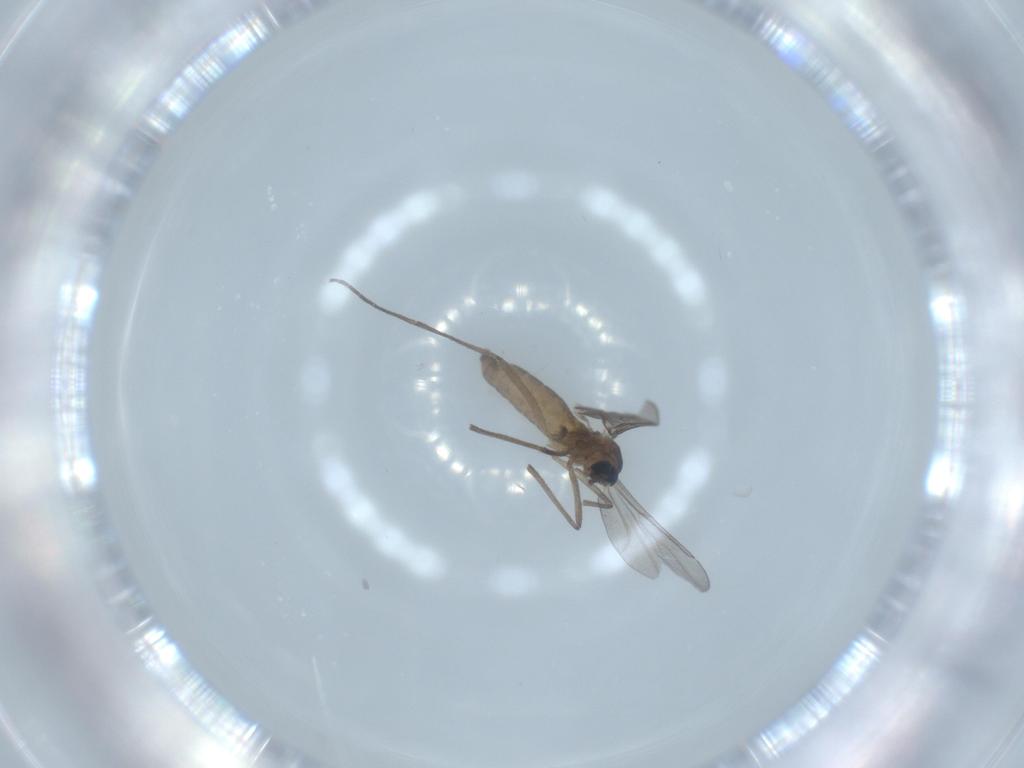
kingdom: Animalia
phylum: Arthropoda
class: Insecta
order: Diptera
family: Cecidomyiidae
